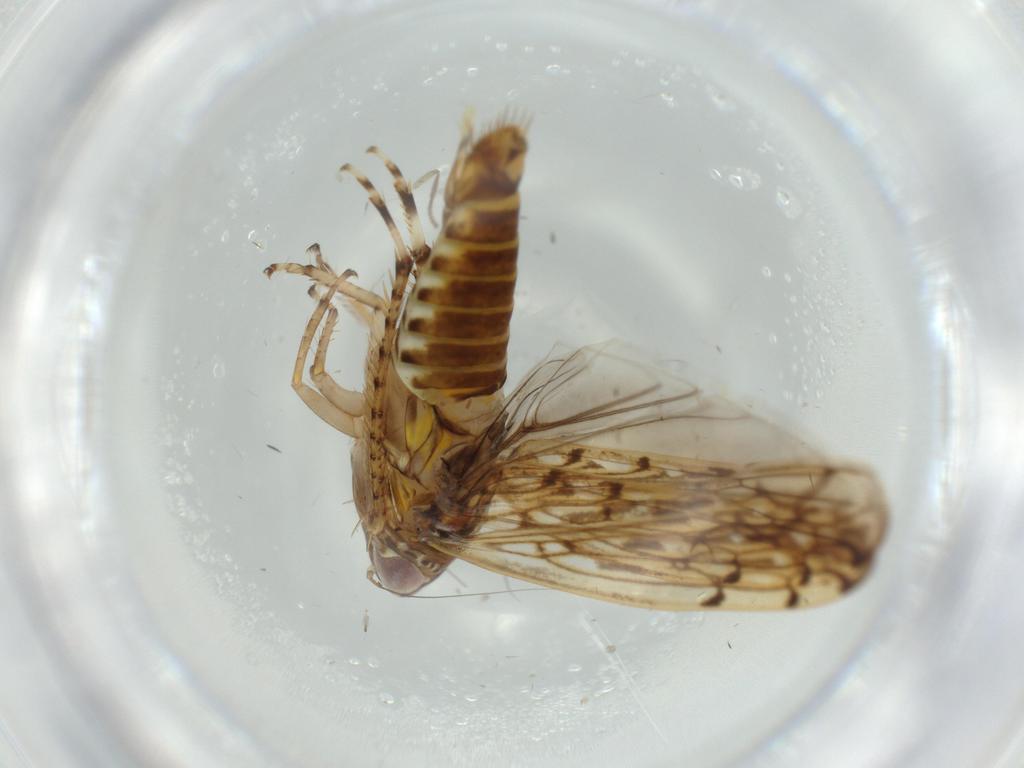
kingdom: Animalia
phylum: Arthropoda
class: Insecta
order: Hemiptera
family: Cicadellidae
